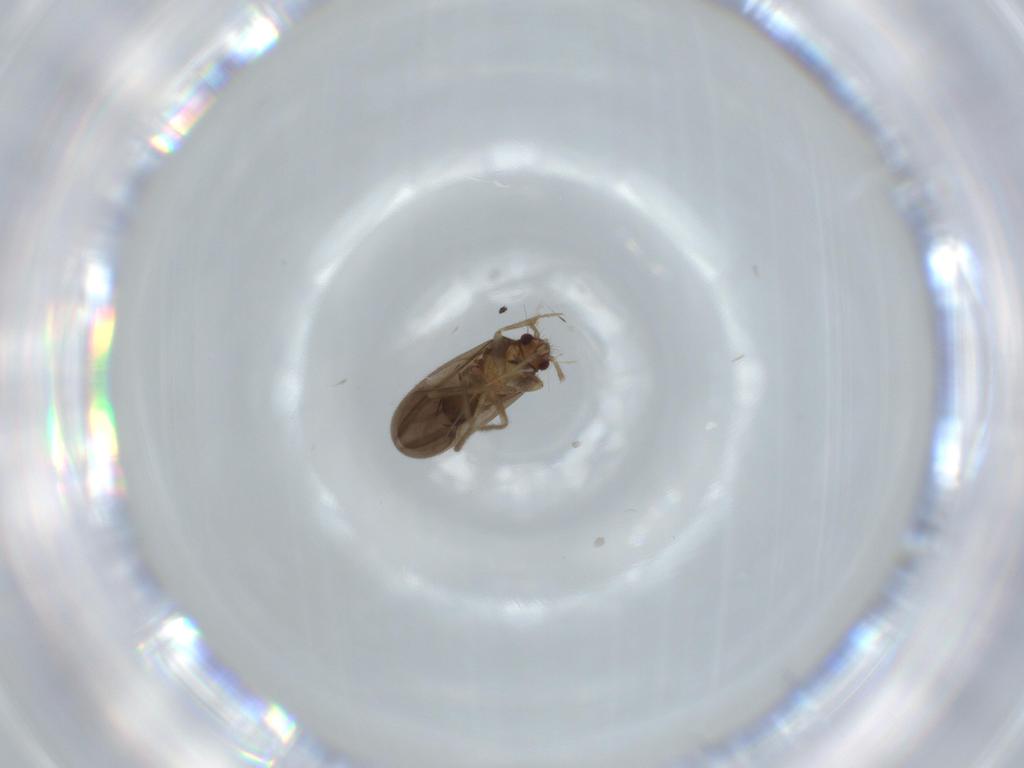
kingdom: Animalia
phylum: Arthropoda
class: Insecta
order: Hemiptera
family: Ceratocombidae
